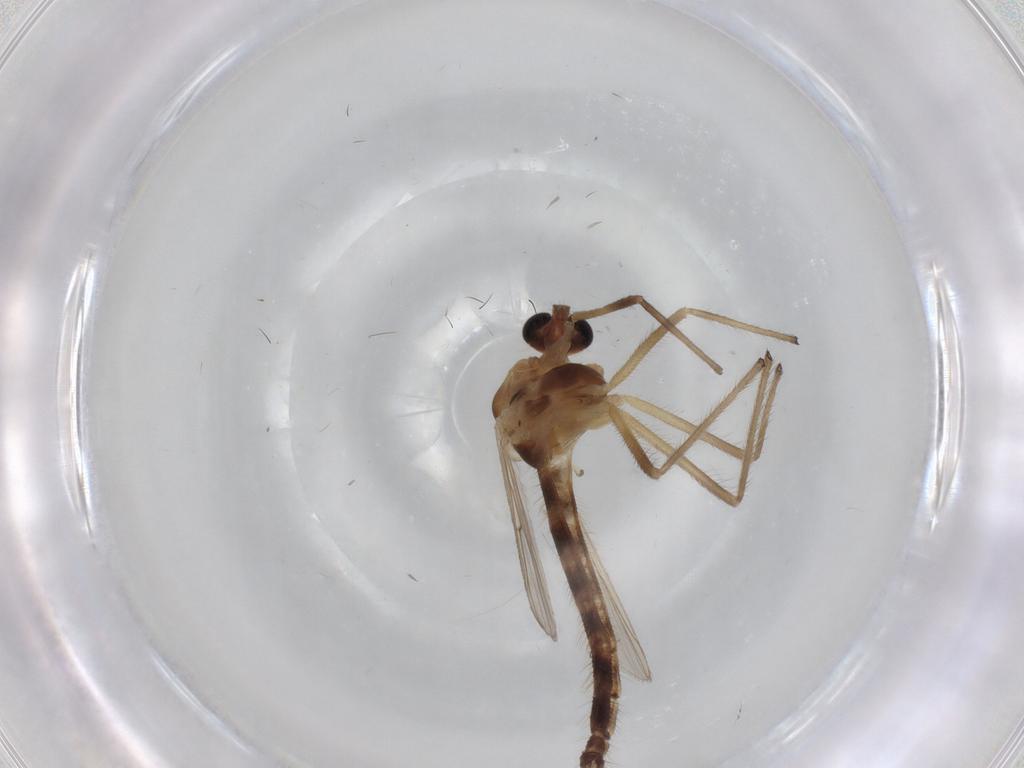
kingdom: Animalia
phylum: Arthropoda
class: Insecta
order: Diptera
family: Chironomidae
